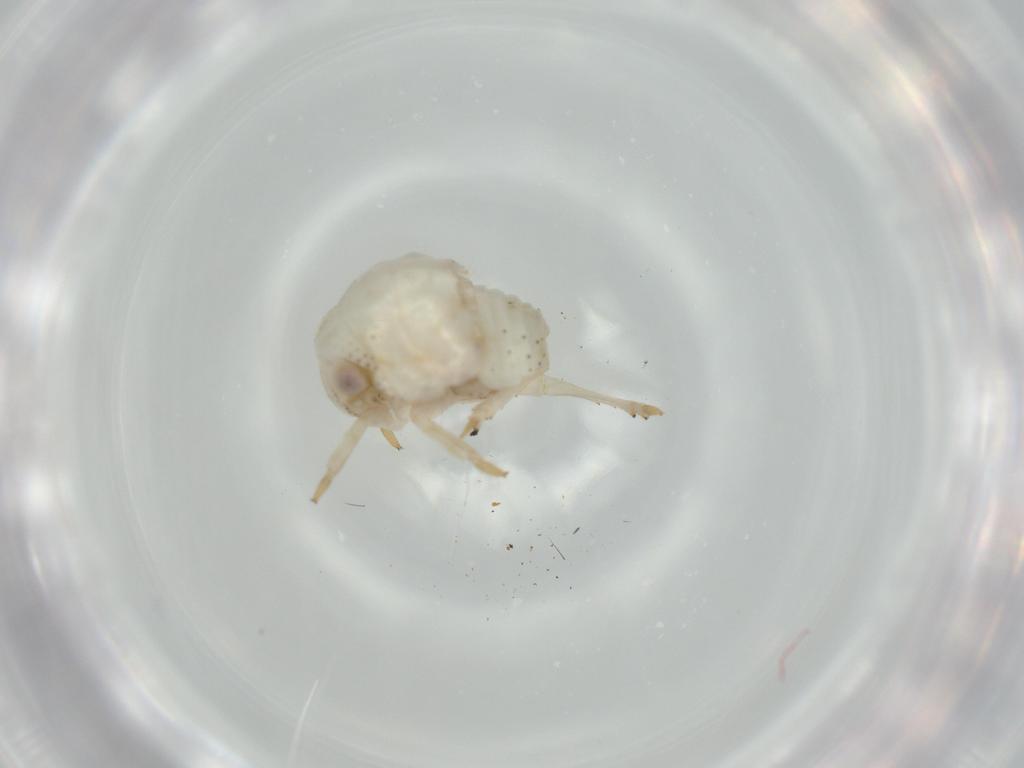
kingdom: Animalia
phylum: Arthropoda
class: Insecta
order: Hemiptera
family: Acanaloniidae
